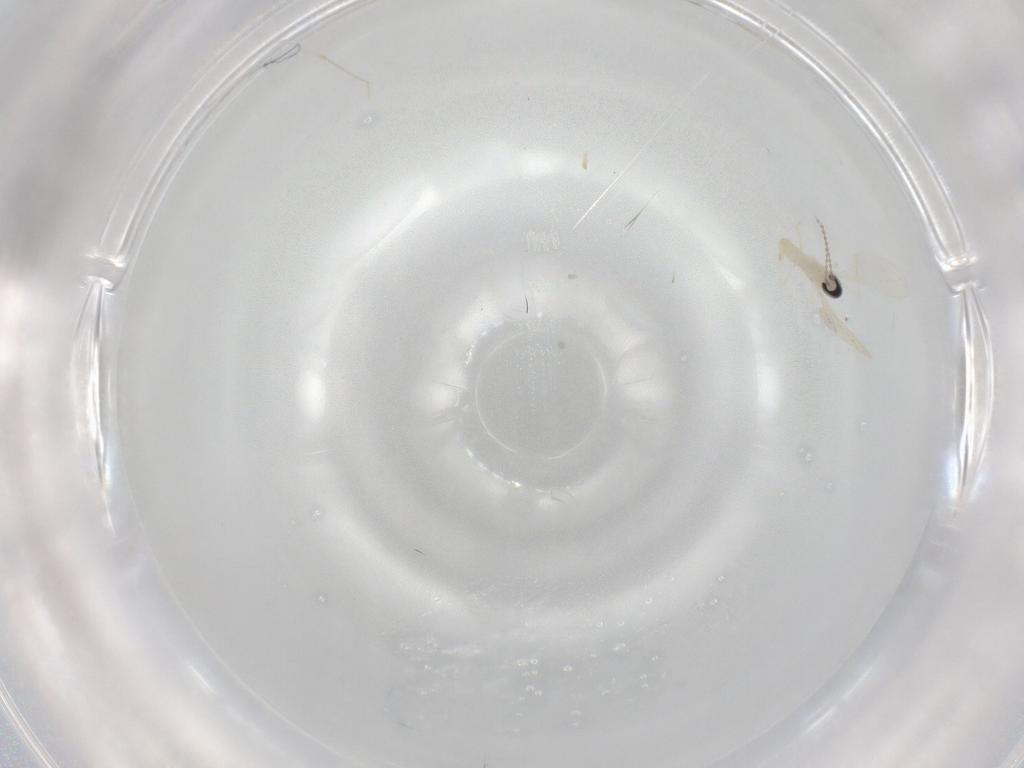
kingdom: Animalia
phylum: Arthropoda
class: Insecta
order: Diptera
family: Cecidomyiidae
